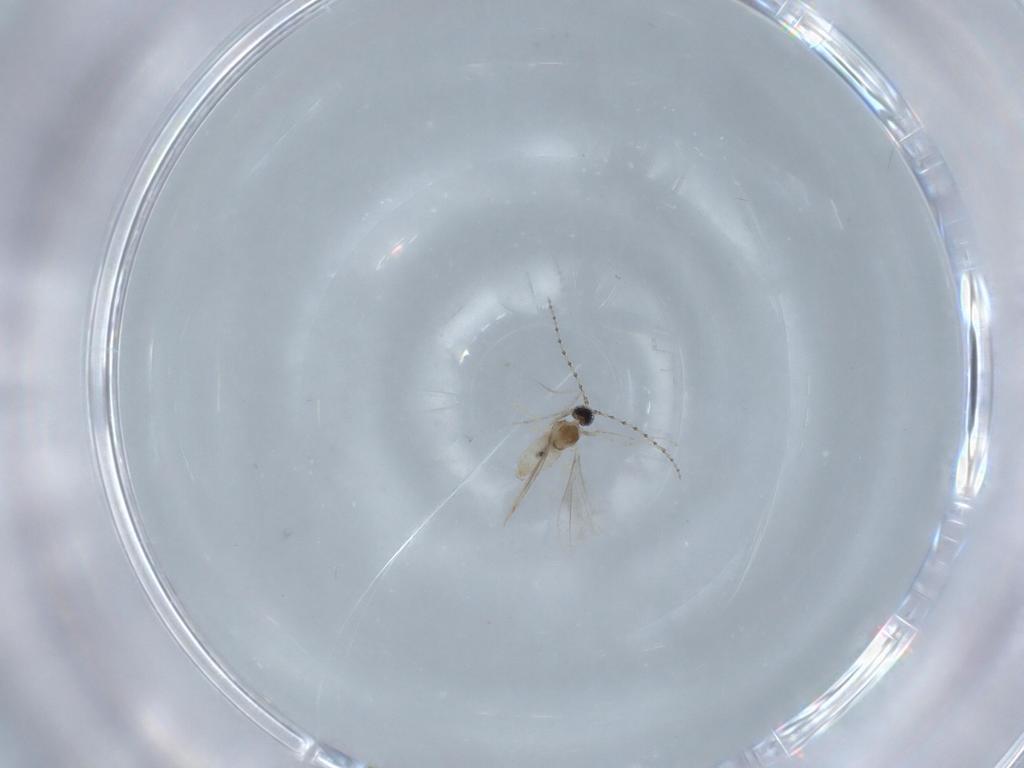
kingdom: Animalia
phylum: Arthropoda
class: Insecta
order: Diptera
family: Cecidomyiidae
